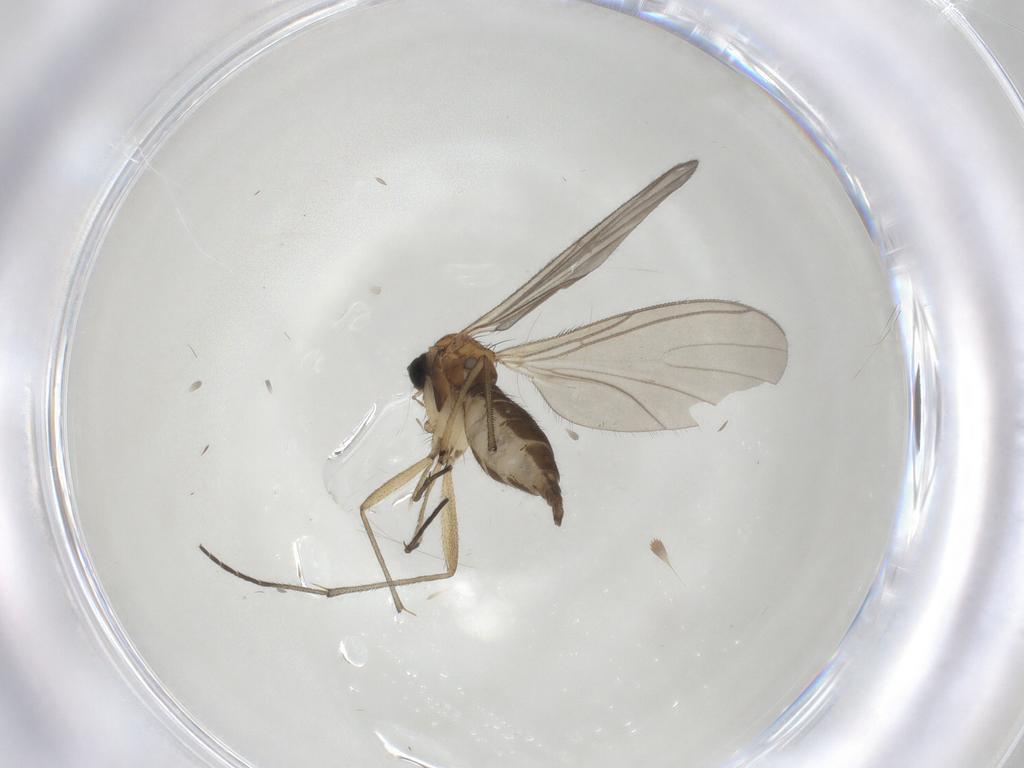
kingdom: Animalia
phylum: Arthropoda
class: Insecta
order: Diptera
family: Sciaridae
